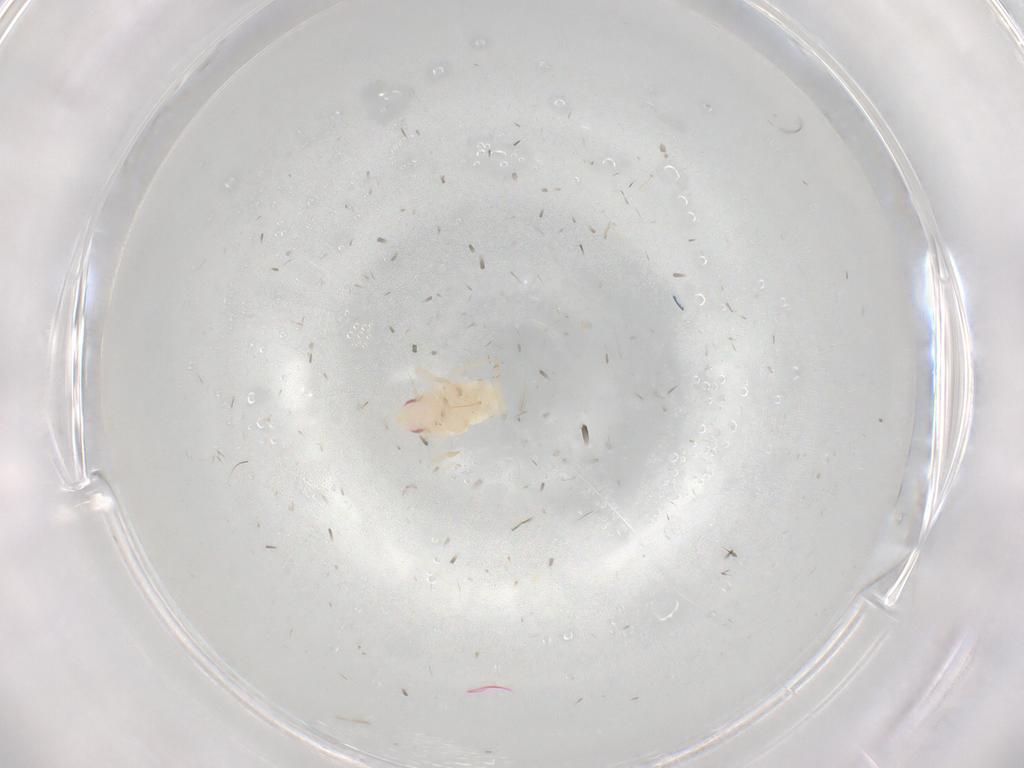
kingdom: Animalia
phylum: Arthropoda
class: Insecta
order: Hemiptera
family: Flatidae
